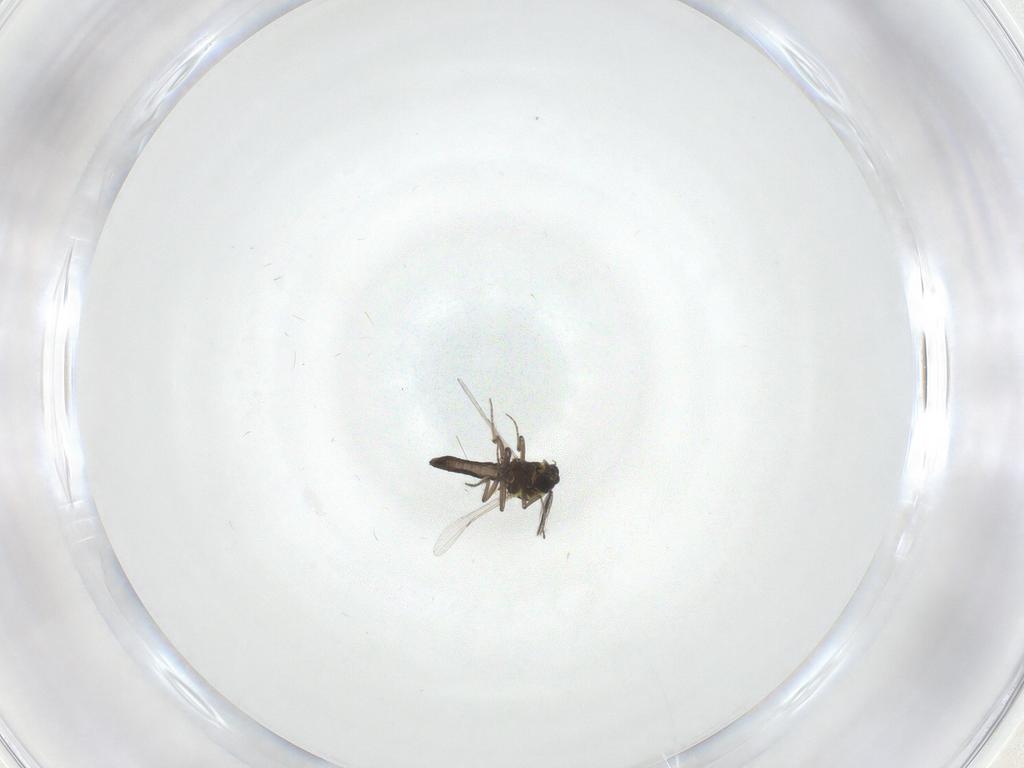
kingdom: Animalia
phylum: Arthropoda
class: Insecta
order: Diptera
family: Ceratopogonidae
